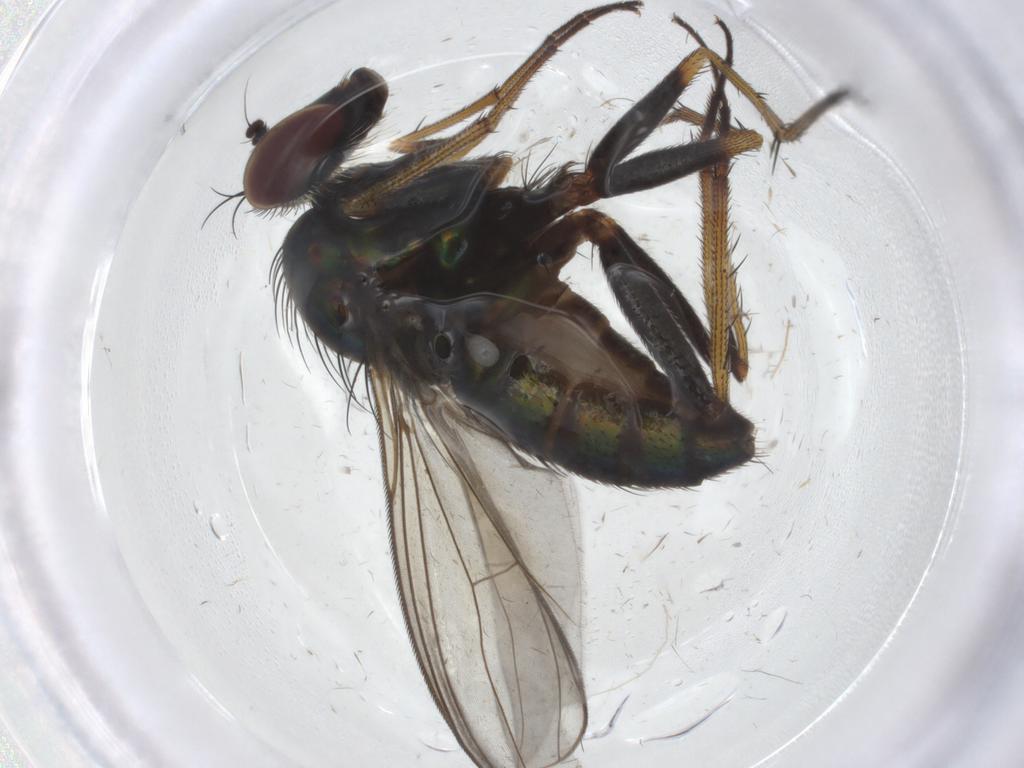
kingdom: Animalia
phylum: Arthropoda
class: Insecta
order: Diptera
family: Dolichopodidae
